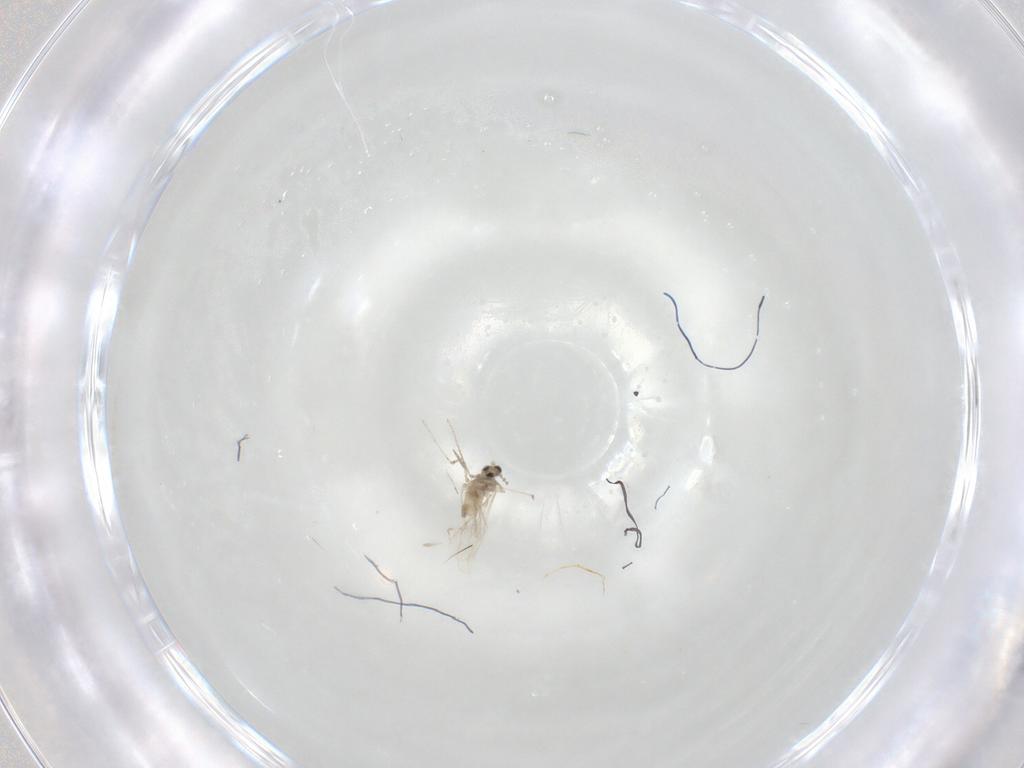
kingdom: Animalia
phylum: Arthropoda
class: Insecta
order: Diptera
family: Cecidomyiidae
